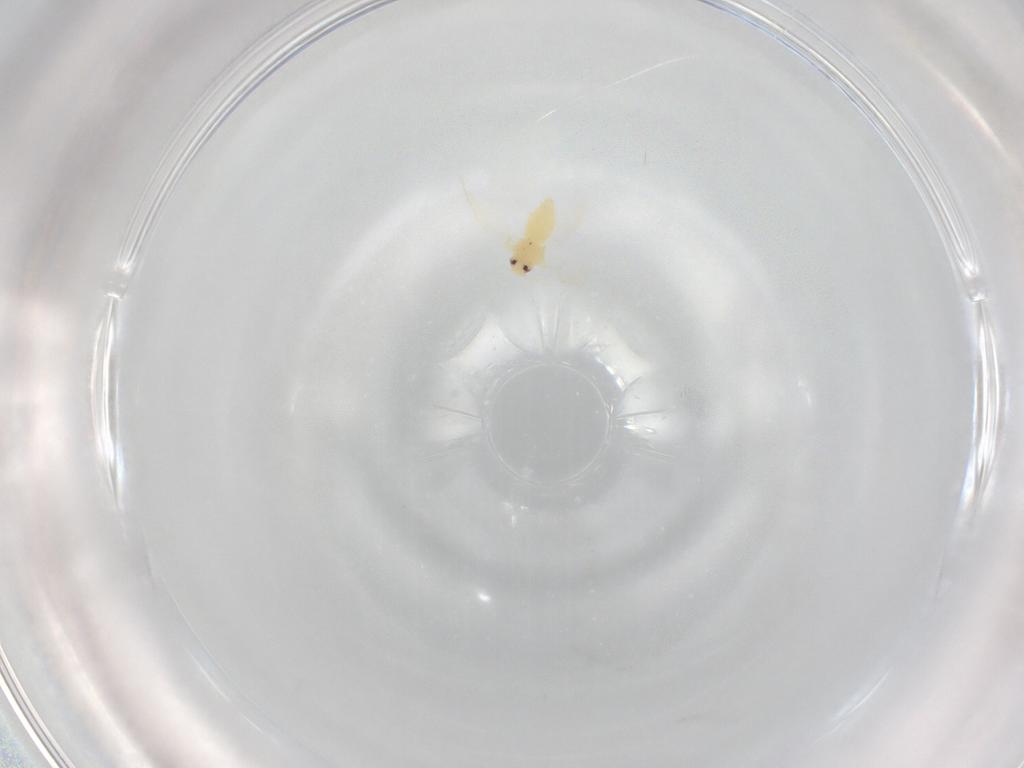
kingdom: Animalia
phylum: Arthropoda
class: Insecta
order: Hemiptera
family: Aleyrodidae
